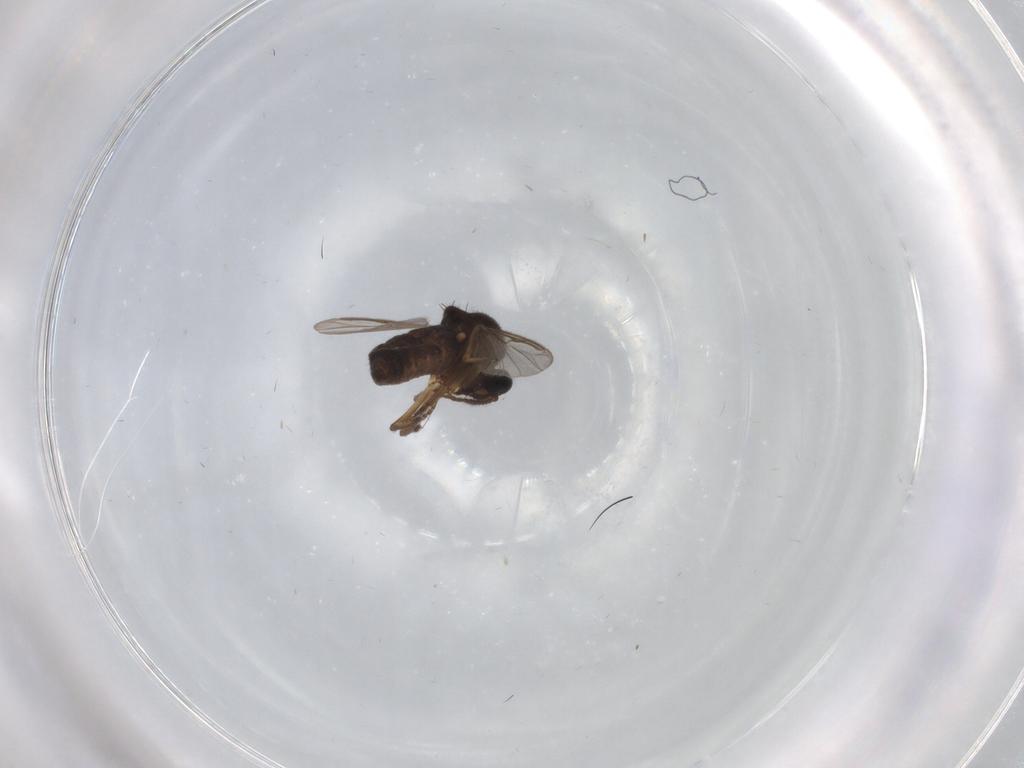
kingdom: Animalia
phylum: Arthropoda
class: Insecta
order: Diptera
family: Ceratopogonidae
